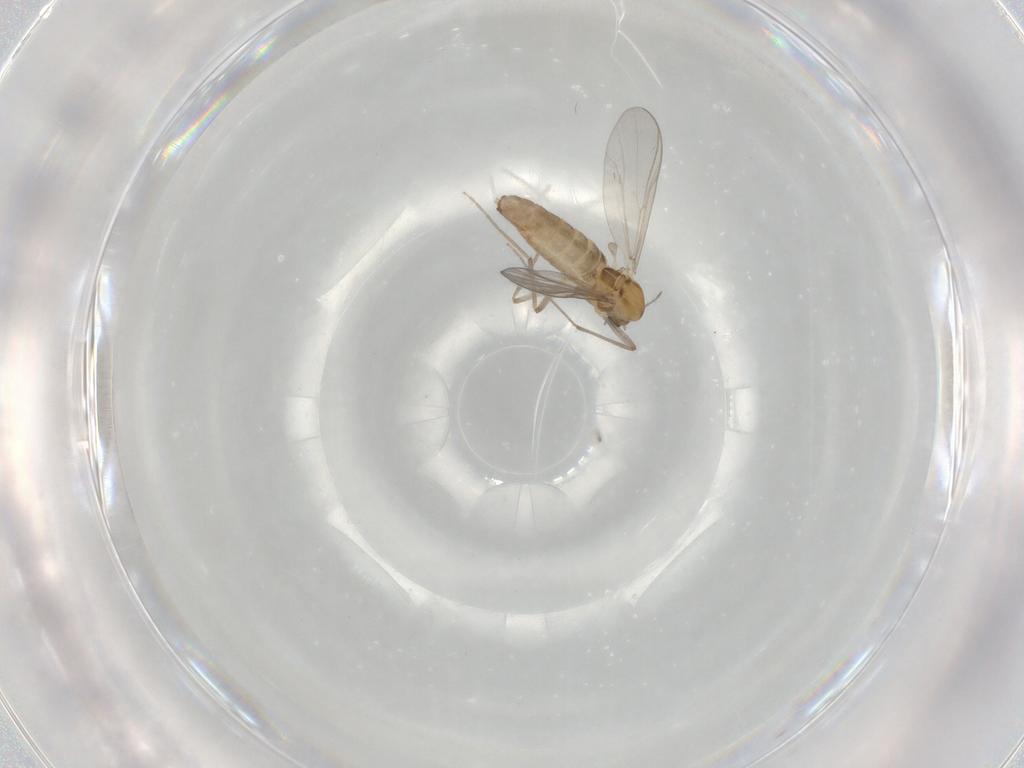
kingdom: Animalia
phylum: Arthropoda
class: Insecta
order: Diptera
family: Chironomidae
